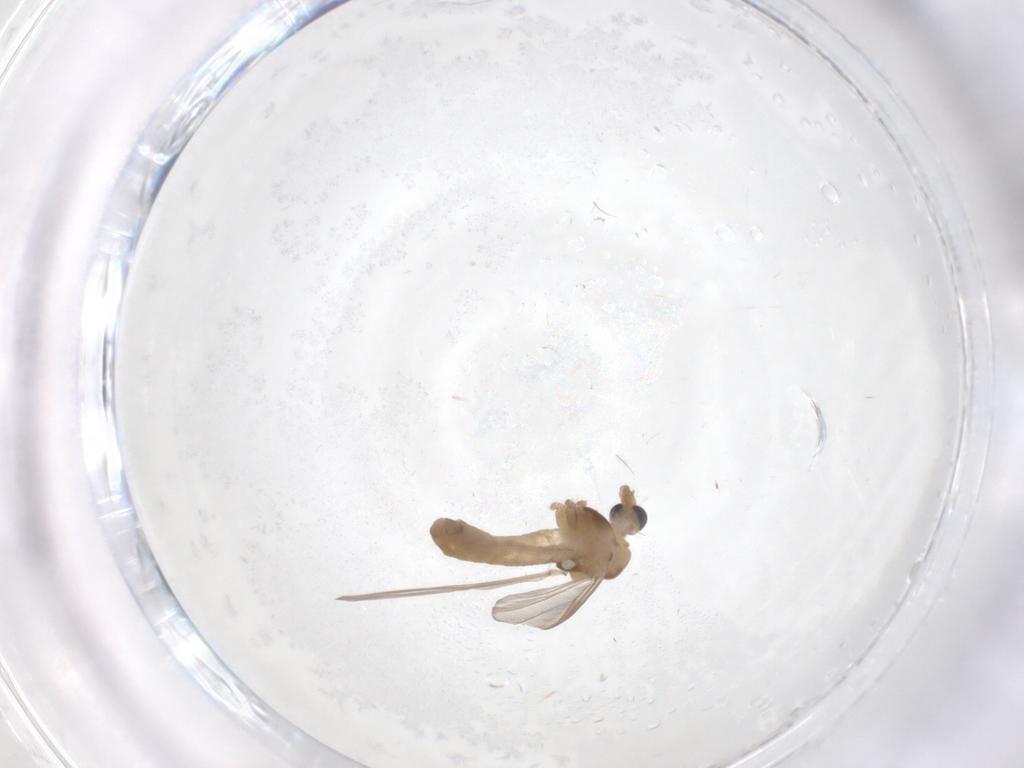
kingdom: Animalia
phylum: Arthropoda
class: Insecta
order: Diptera
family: Chironomidae
